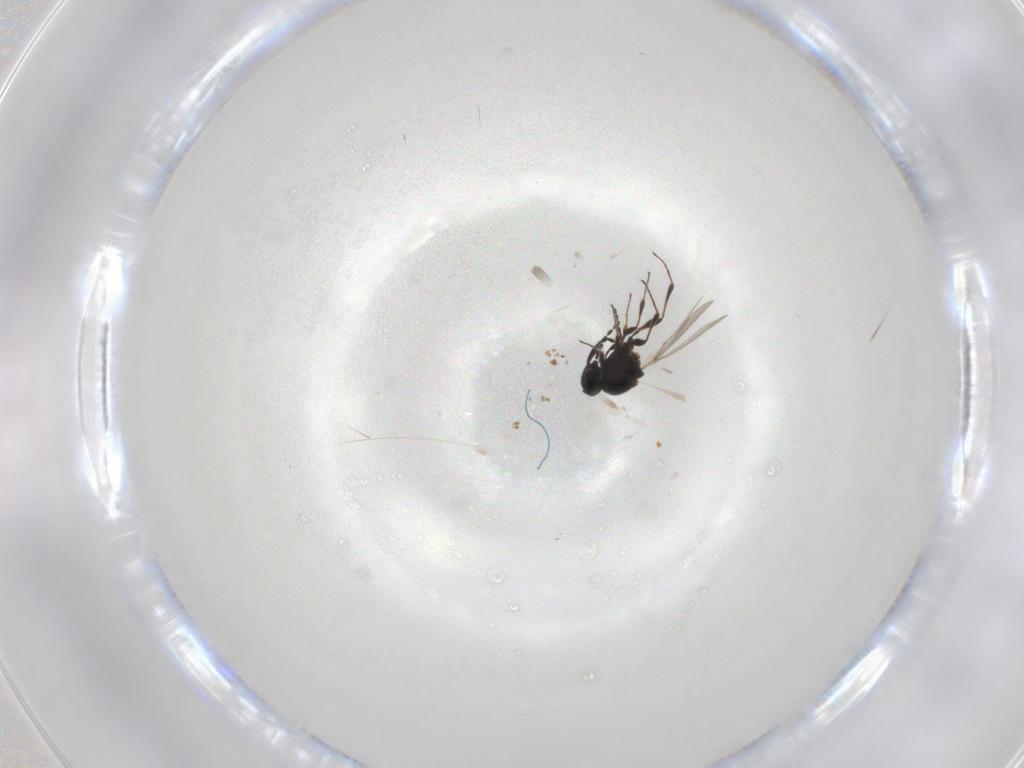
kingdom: Animalia
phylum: Arthropoda
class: Insecta
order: Hymenoptera
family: Platygastridae
